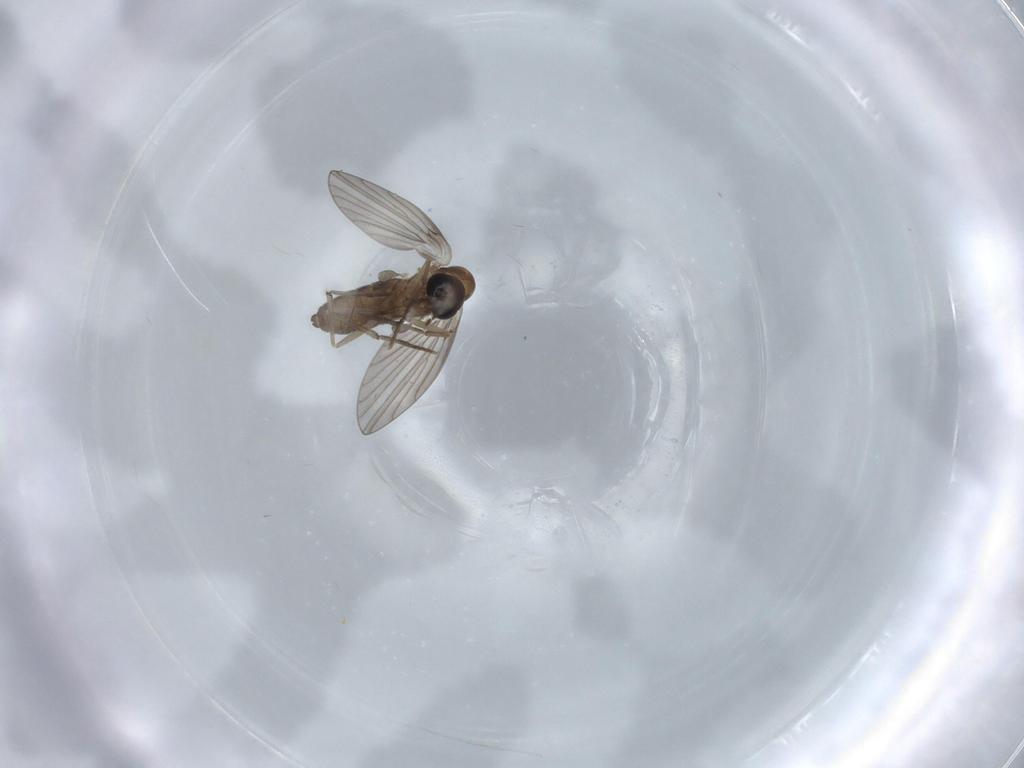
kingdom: Animalia
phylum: Arthropoda
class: Insecta
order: Diptera
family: Psychodidae
